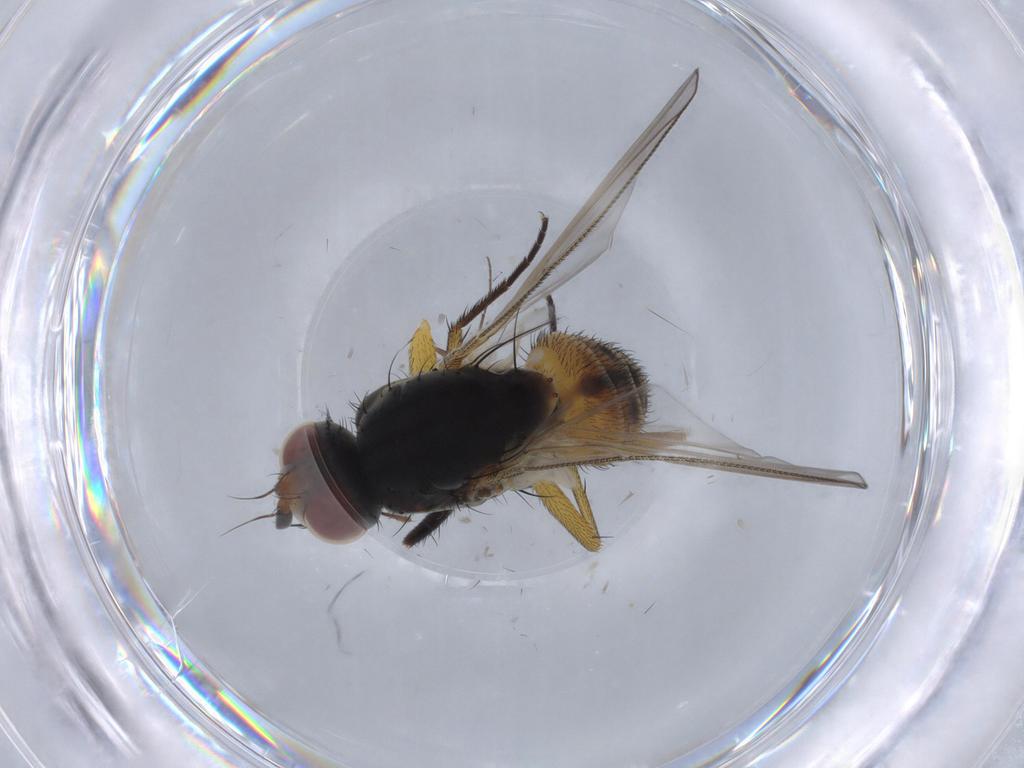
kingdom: Animalia
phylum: Arthropoda
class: Insecta
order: Diptera
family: Muscidae
